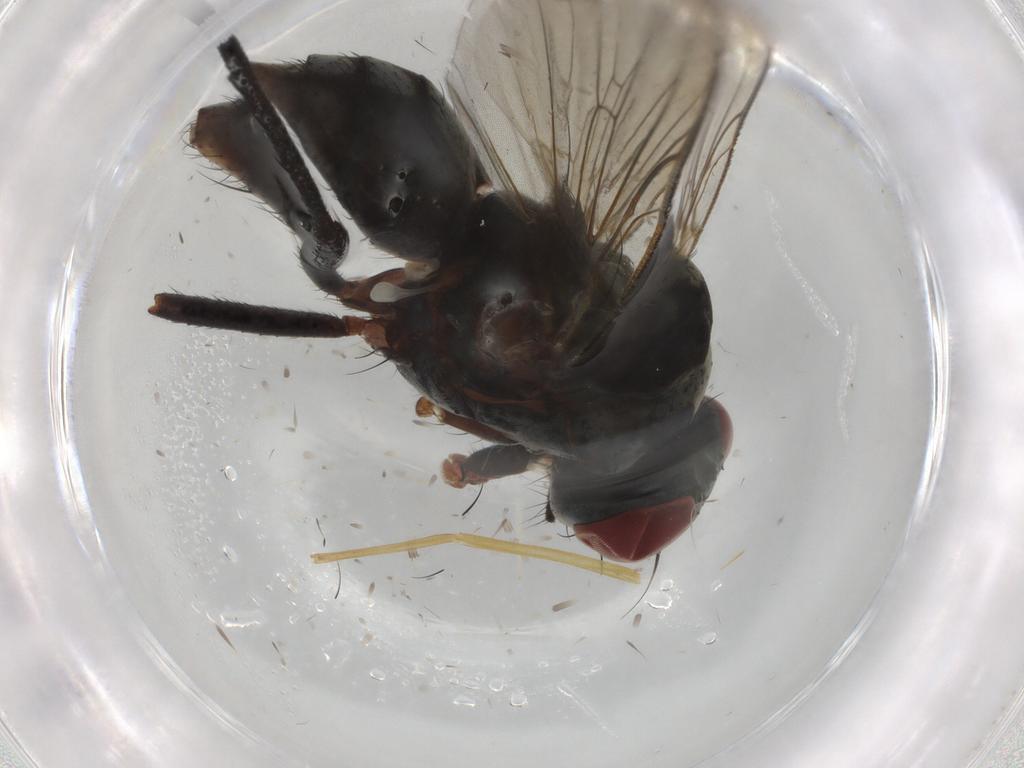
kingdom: Animalia
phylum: Arthropoda
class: Insecta
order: Diptera
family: Anthomyiidae
